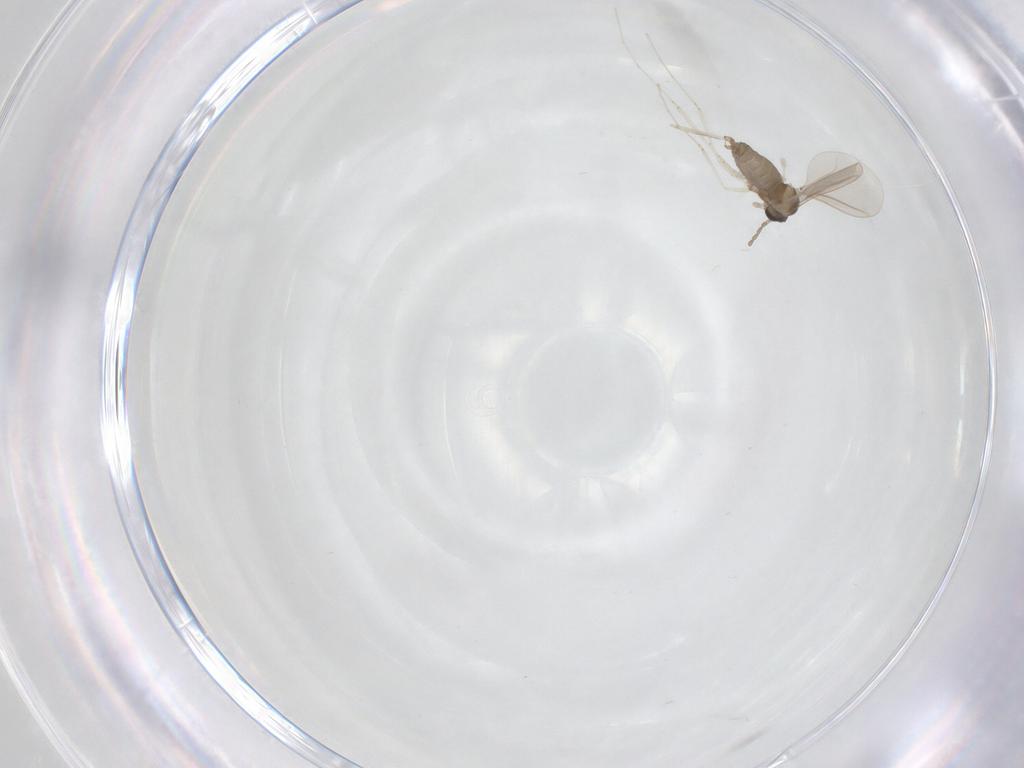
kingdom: Animalia
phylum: Arthropoda
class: Insecta
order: Diptera
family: Cecidomyiidae
